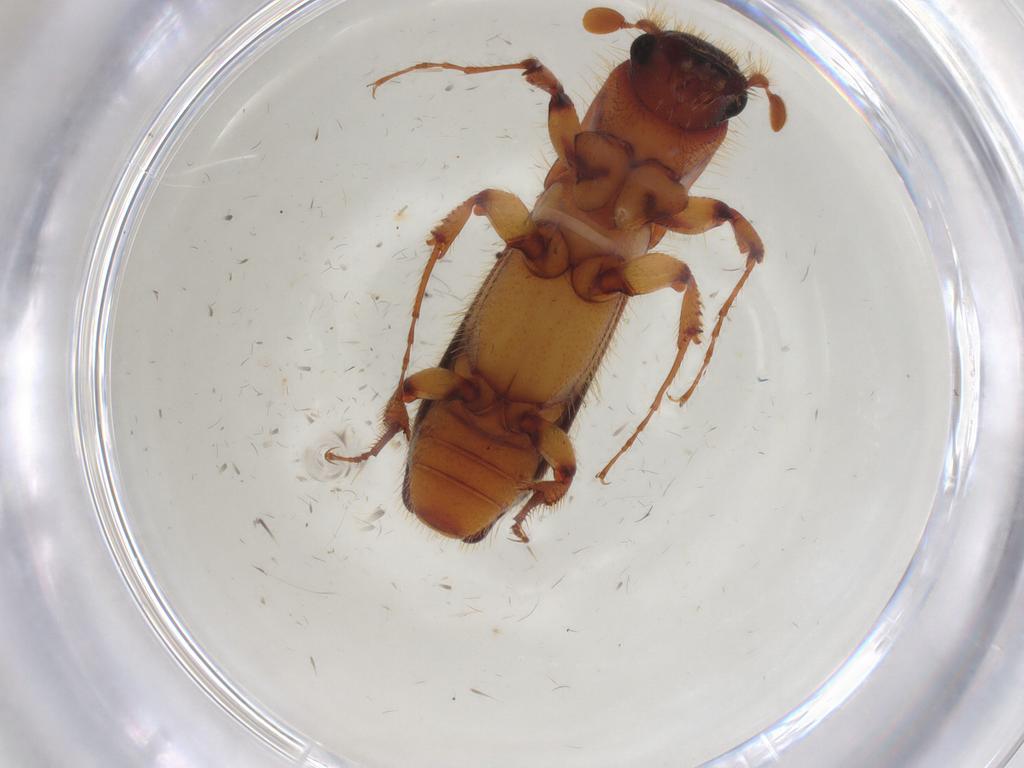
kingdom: Animalia
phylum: Arthropoda
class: Insecta
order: Coleoptera
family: Curculionidae
